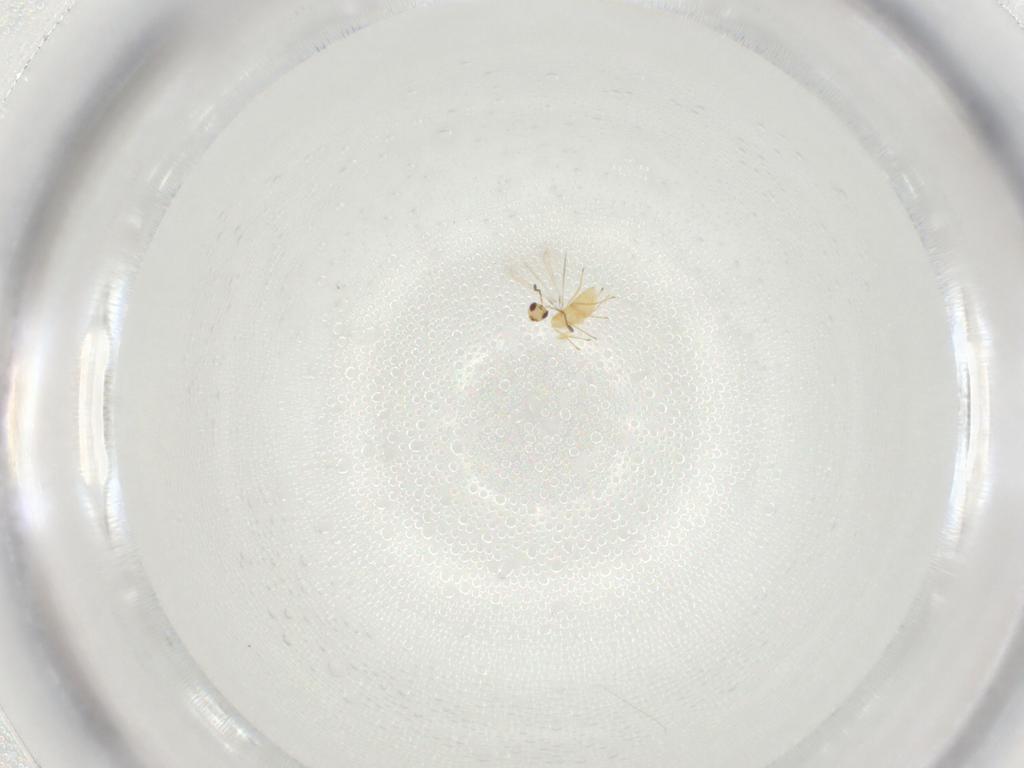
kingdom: Animalia
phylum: Arthropoda
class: Insecta
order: Hymenoptera
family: Mymaridae
